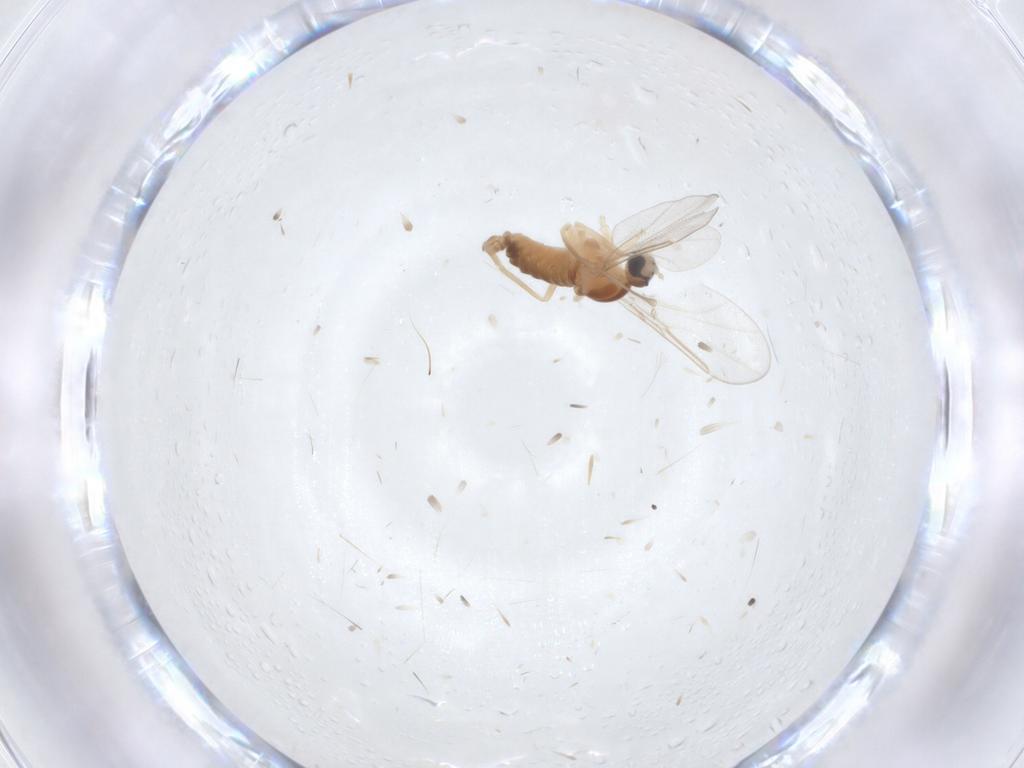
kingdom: Animalia
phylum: Arthropoda
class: Insecta
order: Diptera
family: Cecidomyiidae
